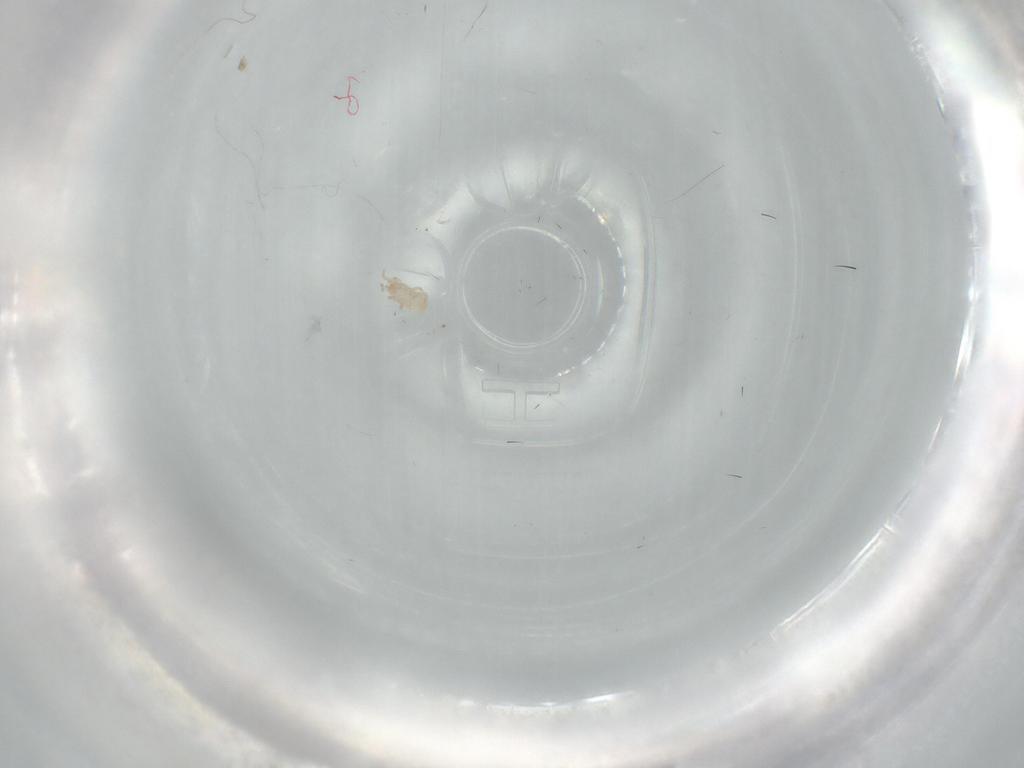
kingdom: Animalia
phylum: Arthropoda
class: Arachnida
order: Mesostigmata
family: Digamasellidae
